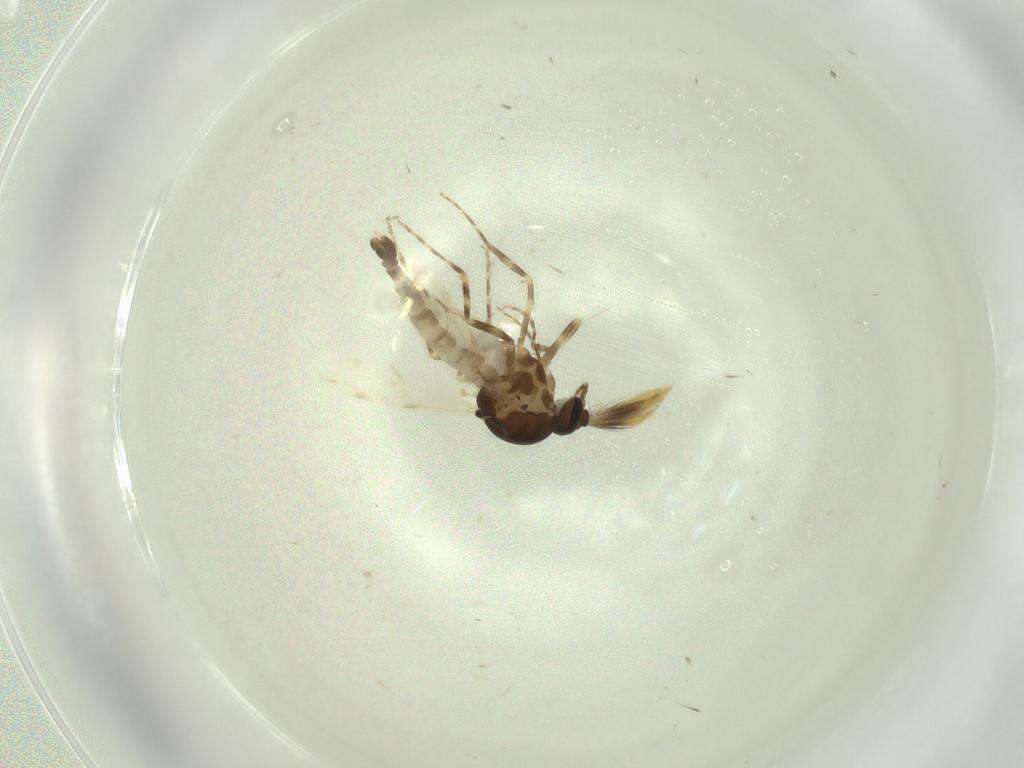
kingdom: Animalia
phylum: Arthropoda
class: Insecta
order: Diptera
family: Ceratopogonidae
